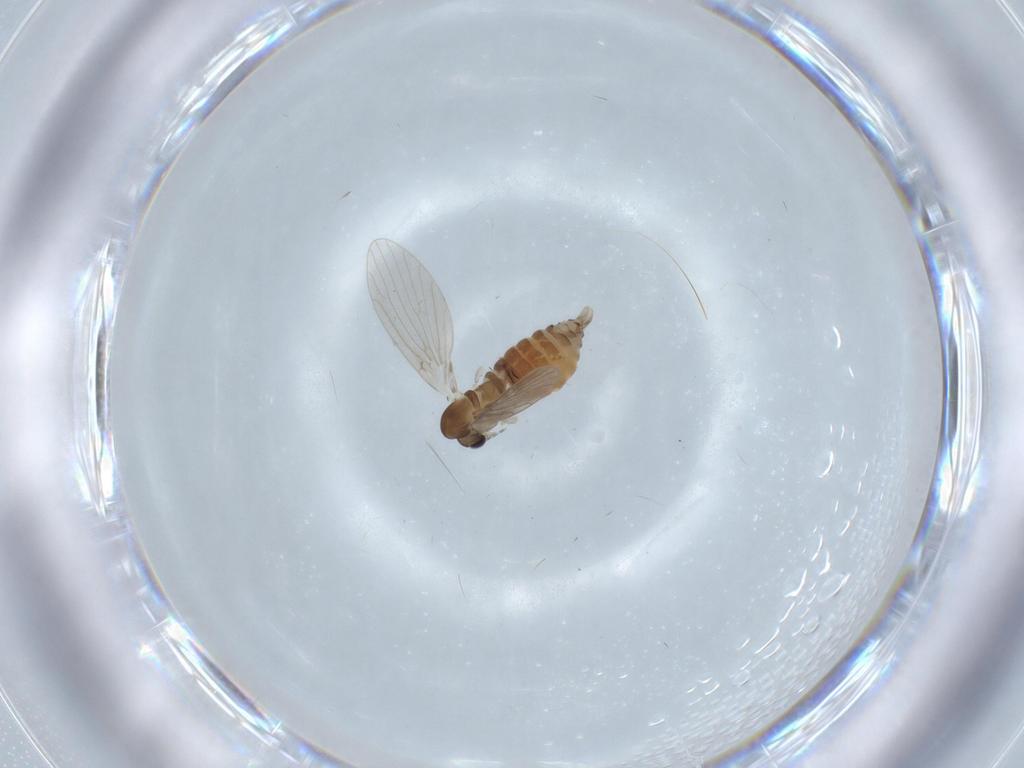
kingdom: Animalia
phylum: Arthropoda
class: Insecta
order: Diptera
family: Psychodidae
